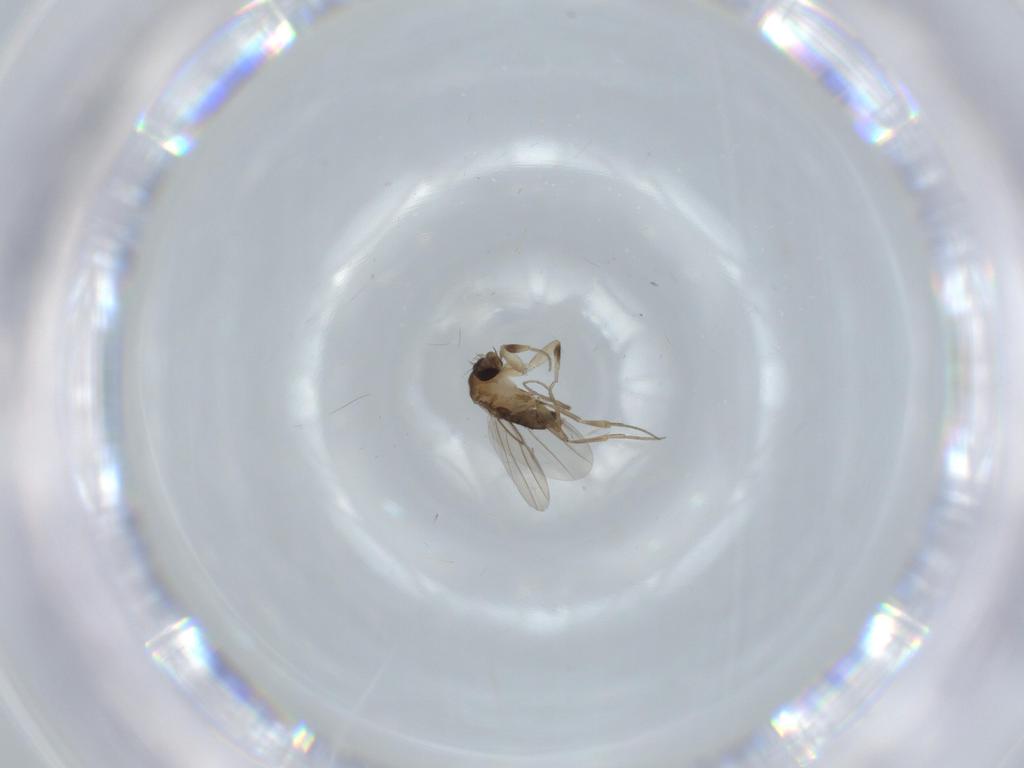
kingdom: Animalia
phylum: Arthropoda
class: Insecta
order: Diptera
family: Phoridae
